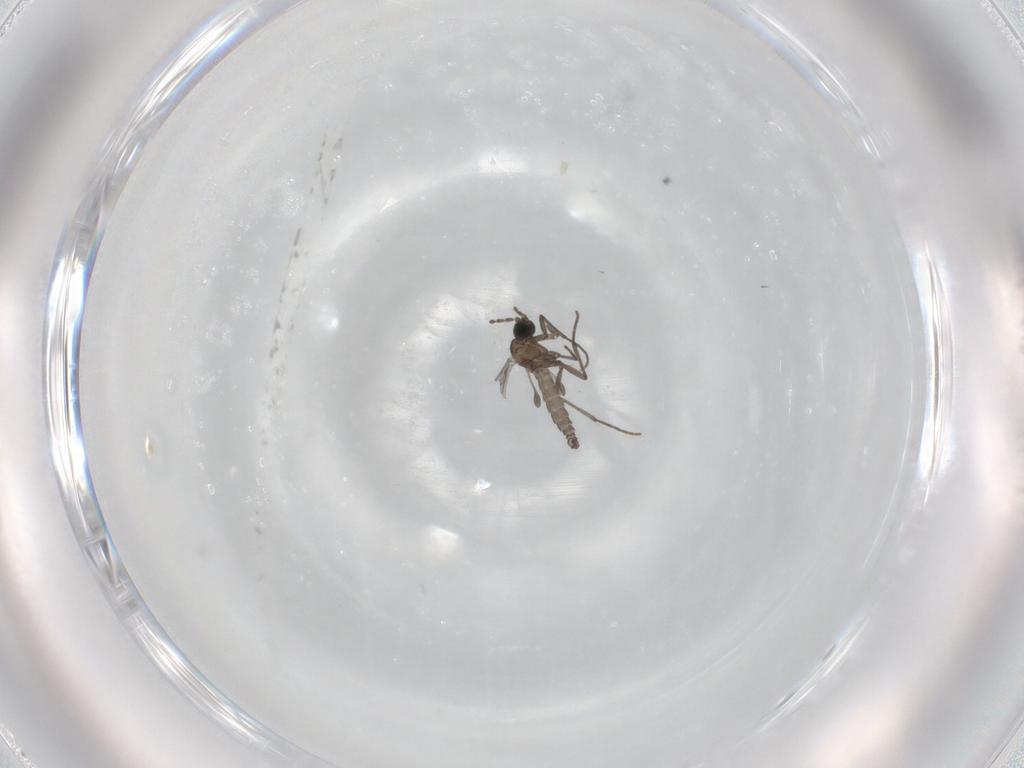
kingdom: Animalia
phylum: Arthropoda
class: Insecta
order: Diptera
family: Sciaridae
